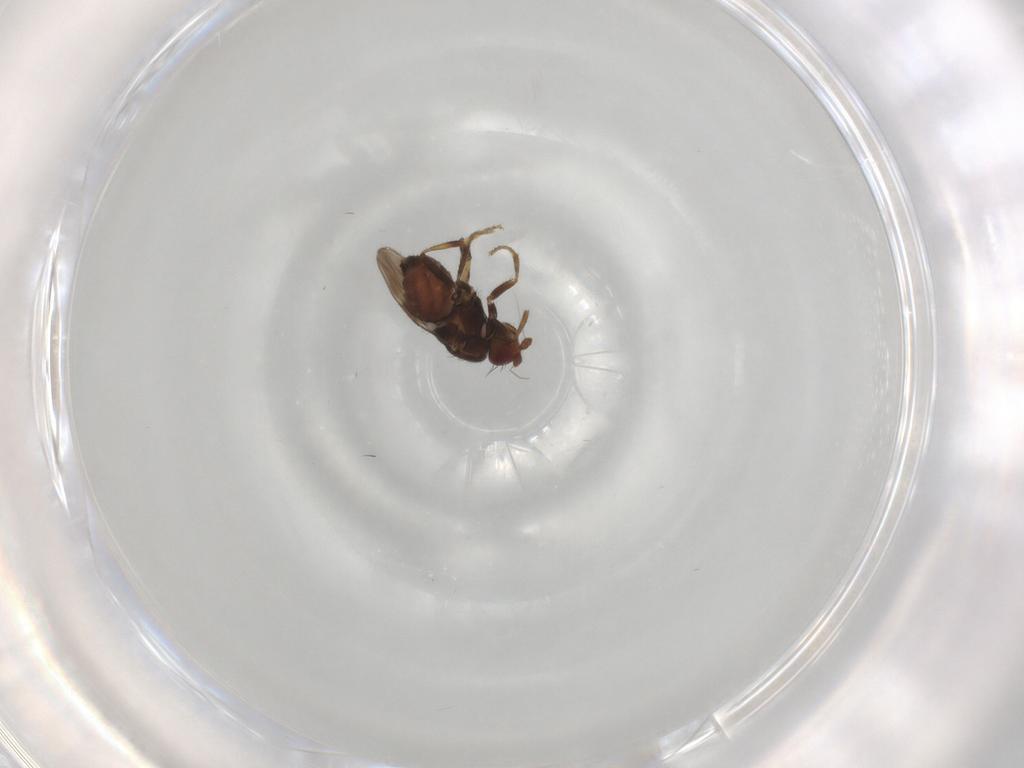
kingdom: Animalia
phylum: Arthropoda
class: Insecta
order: Diptera
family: Sphaeroceridae
